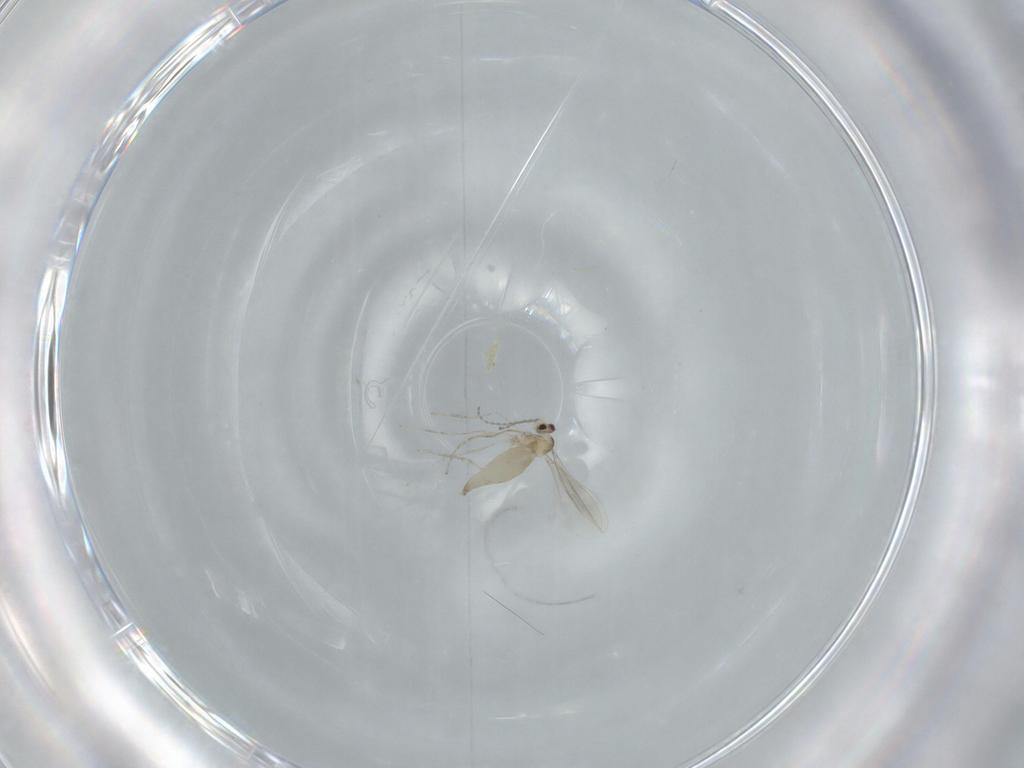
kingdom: Animalia
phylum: Arthropoda
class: Insecta
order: Diptera
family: Cecidomyiidae
